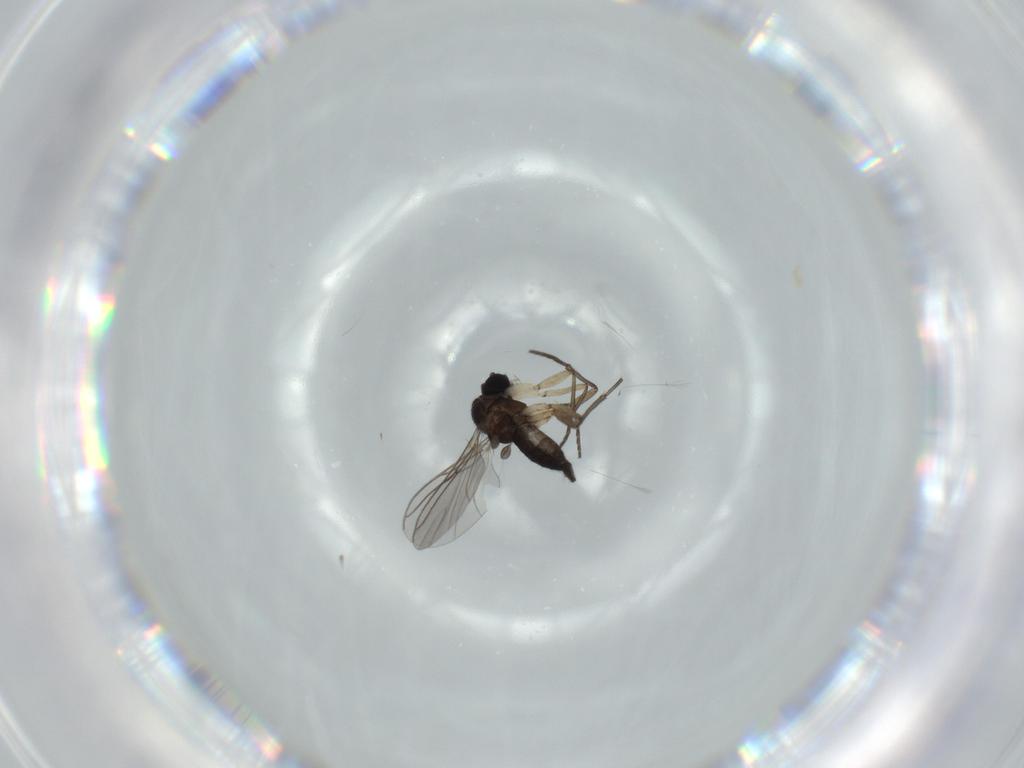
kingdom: Animalia
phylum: Arthropoda
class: Insecta
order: Diptera
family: Sciaridae
